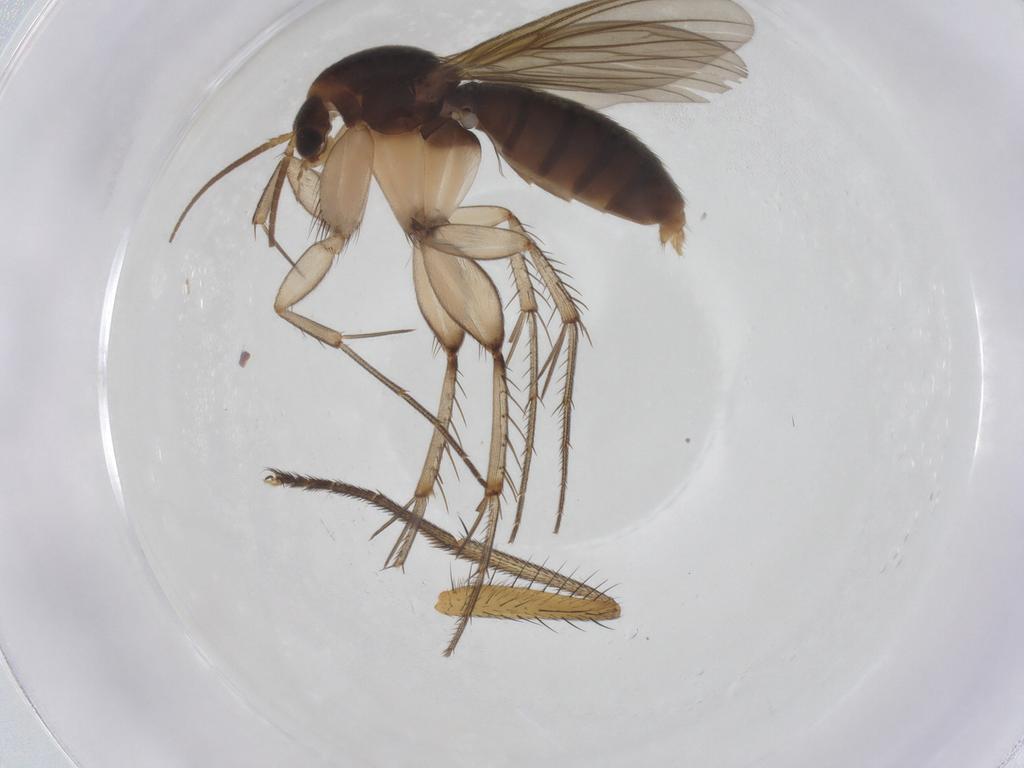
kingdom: Animalia
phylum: Arthropoda
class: Insecta
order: Diptera
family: Mycetophilidae
